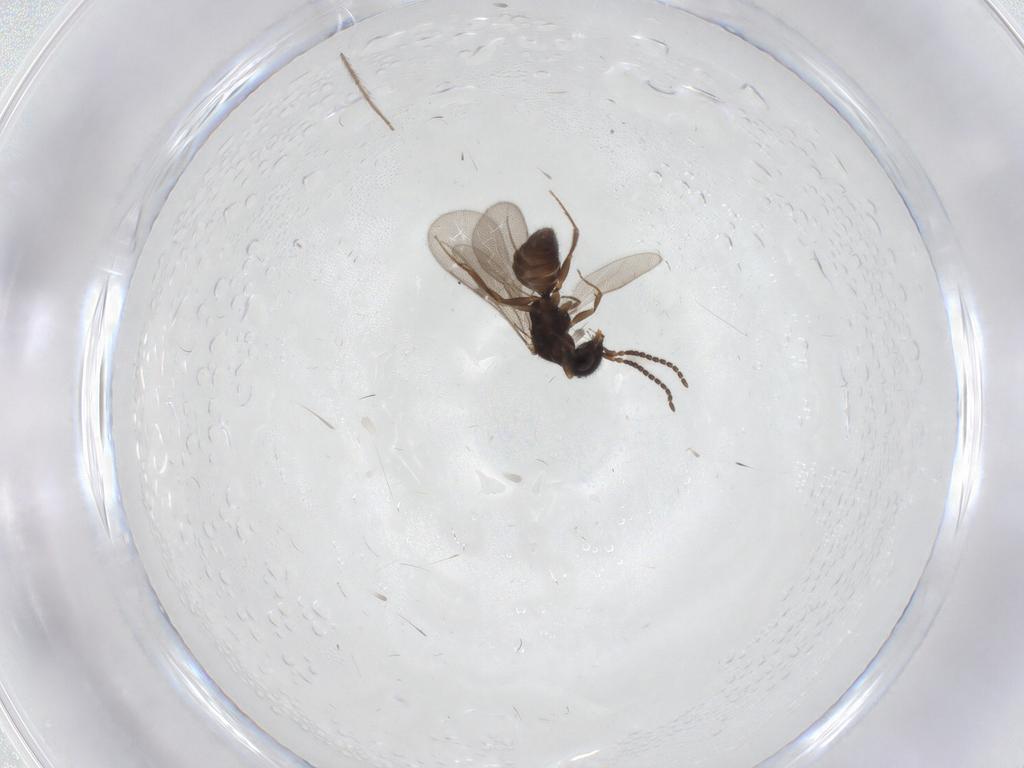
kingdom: Animalia
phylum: Arthropoda
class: Insecta
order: Hymenoptera
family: Bethylidae
